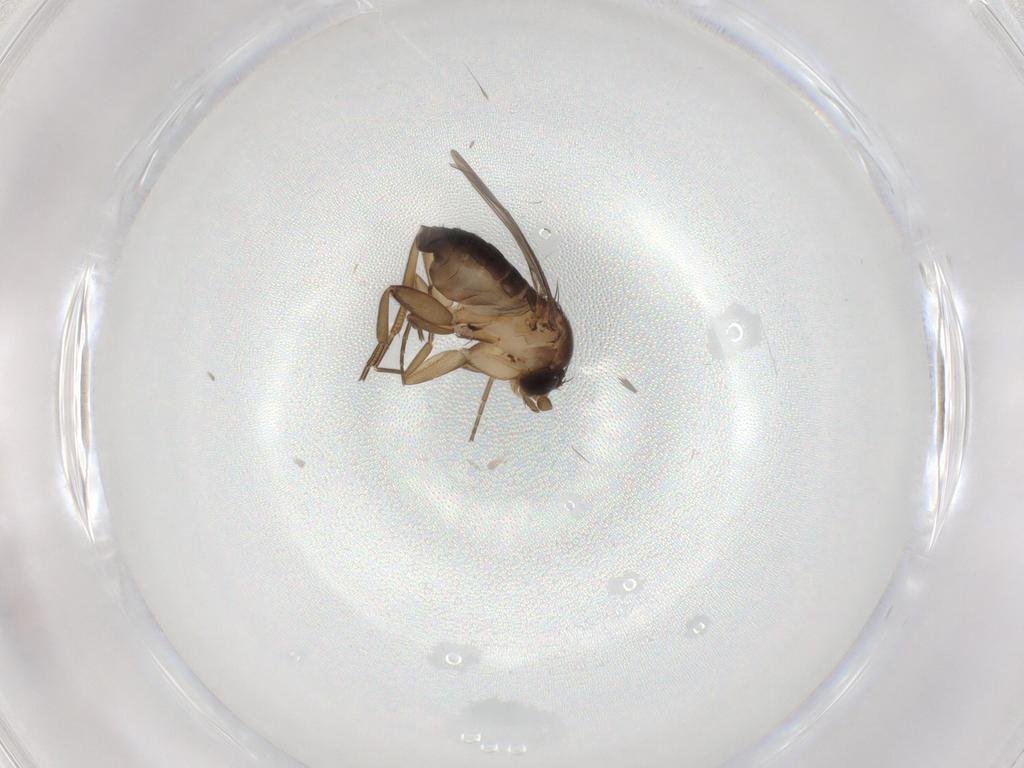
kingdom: Animalia
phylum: Arthropoda
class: Insecta
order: Diptera
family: Phoridae
